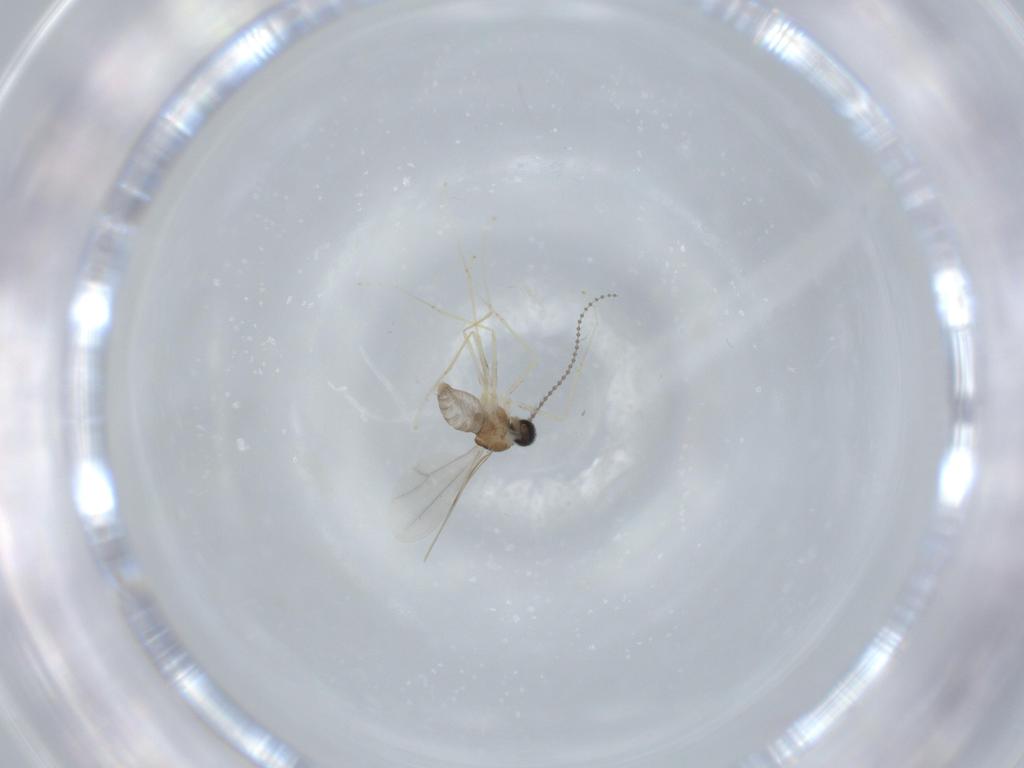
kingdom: Animalia
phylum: Arthropoda
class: Insecta
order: Diptera
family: Cecidomyiidae
